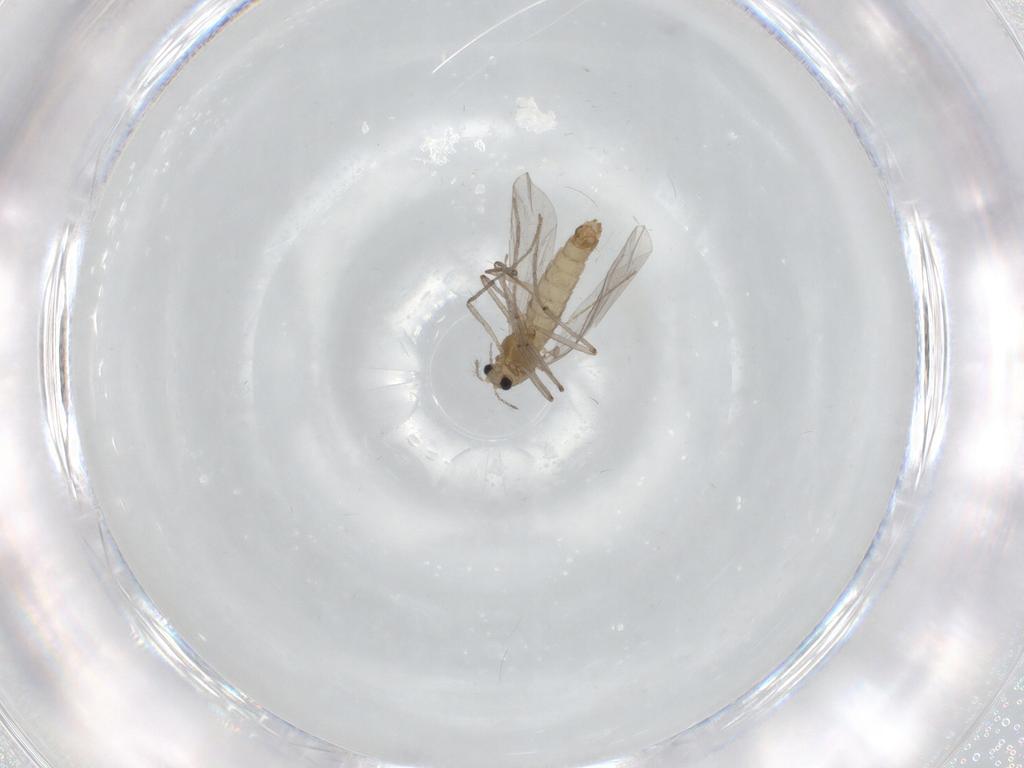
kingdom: Animalia
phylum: Arthropoda
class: Insecta
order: Diptera
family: Chironomidae
